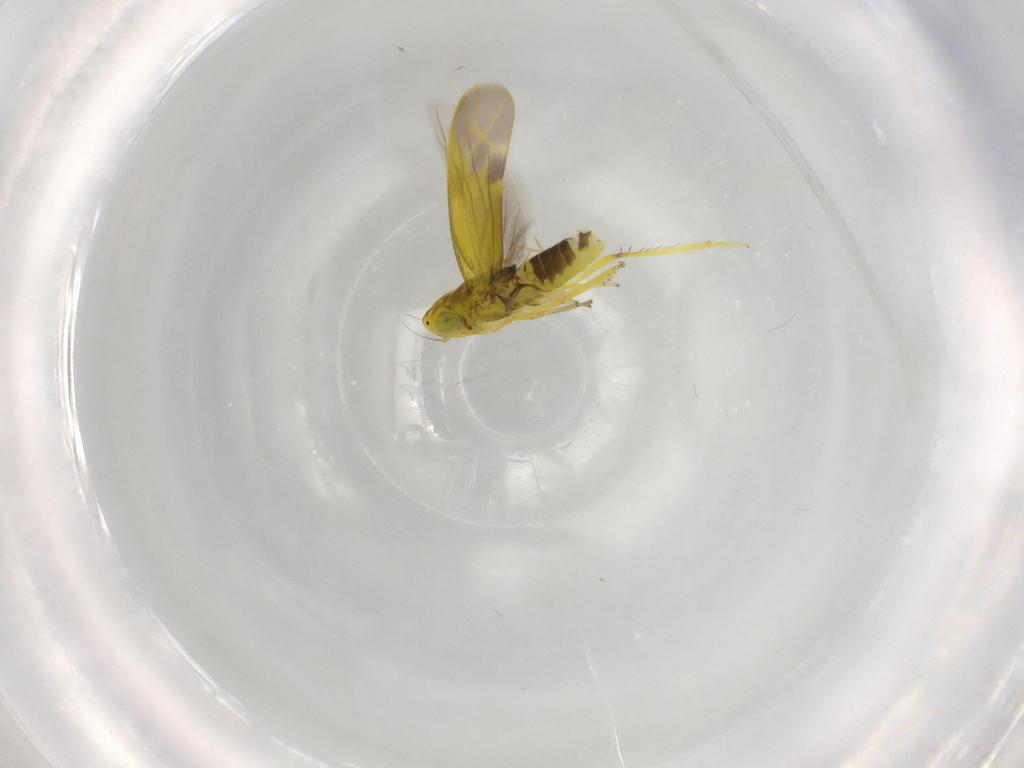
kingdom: Animalia
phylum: Arthropoda
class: Insecta
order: Hemiptera
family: Cicadellidae
